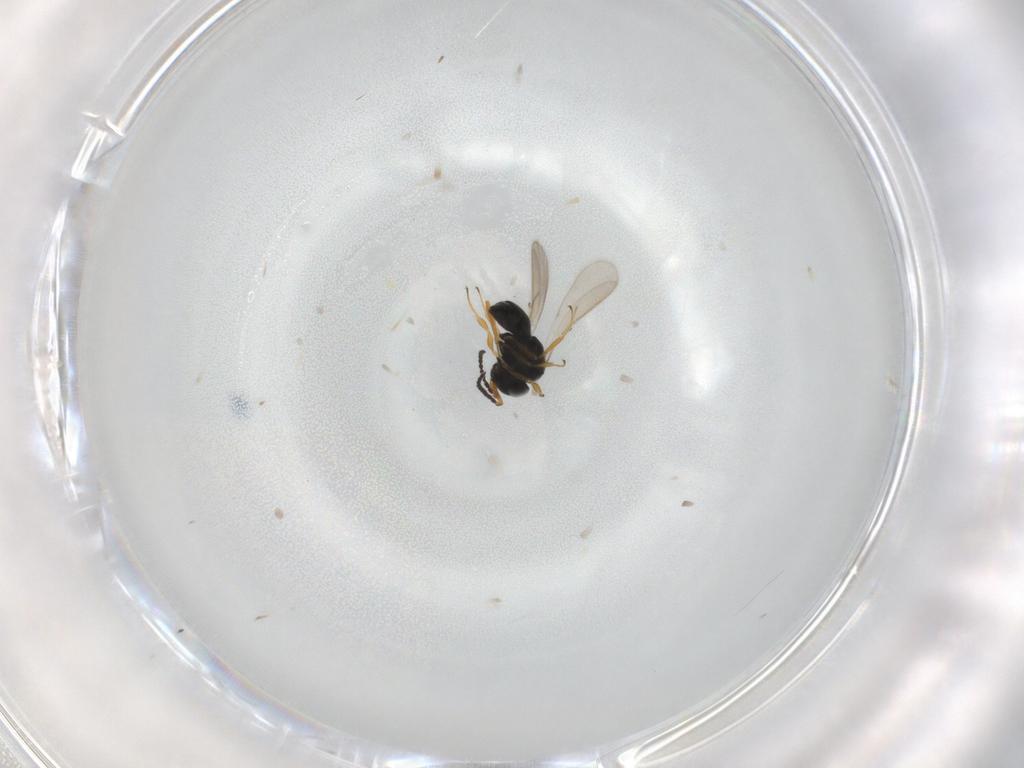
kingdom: Animalia
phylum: Arthropoda
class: Insecta
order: Hymenoptera
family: Scelionidae
